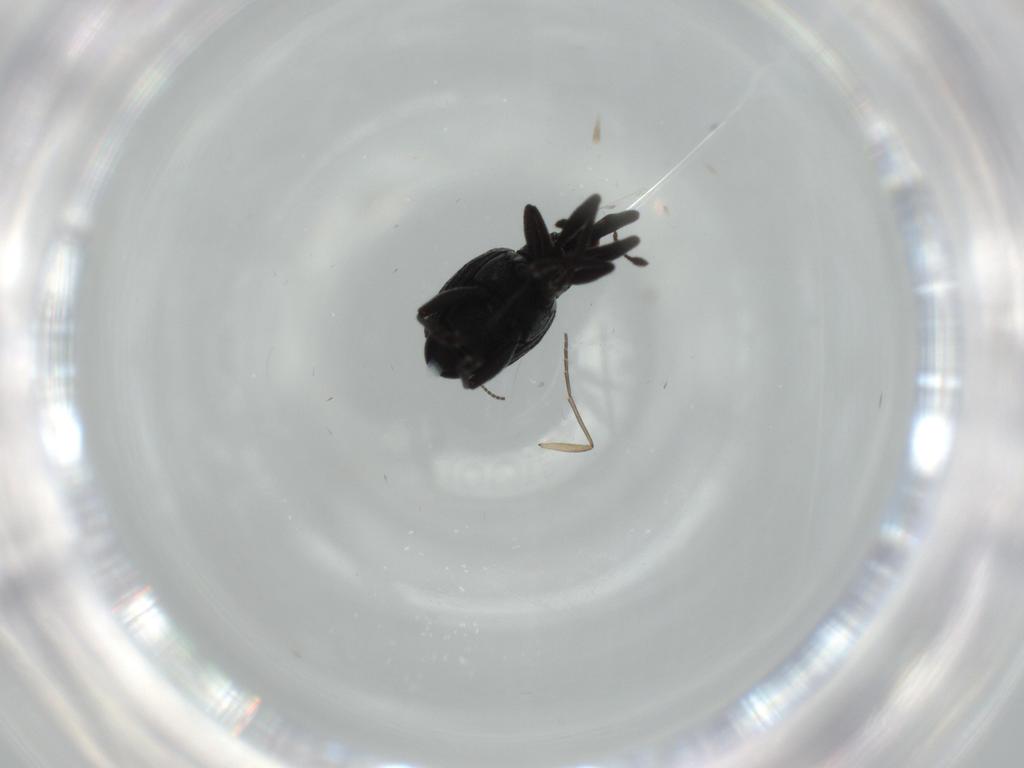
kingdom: Animalia
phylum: Arthropoda
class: Insecta
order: Coleoptera
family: Brentidae
